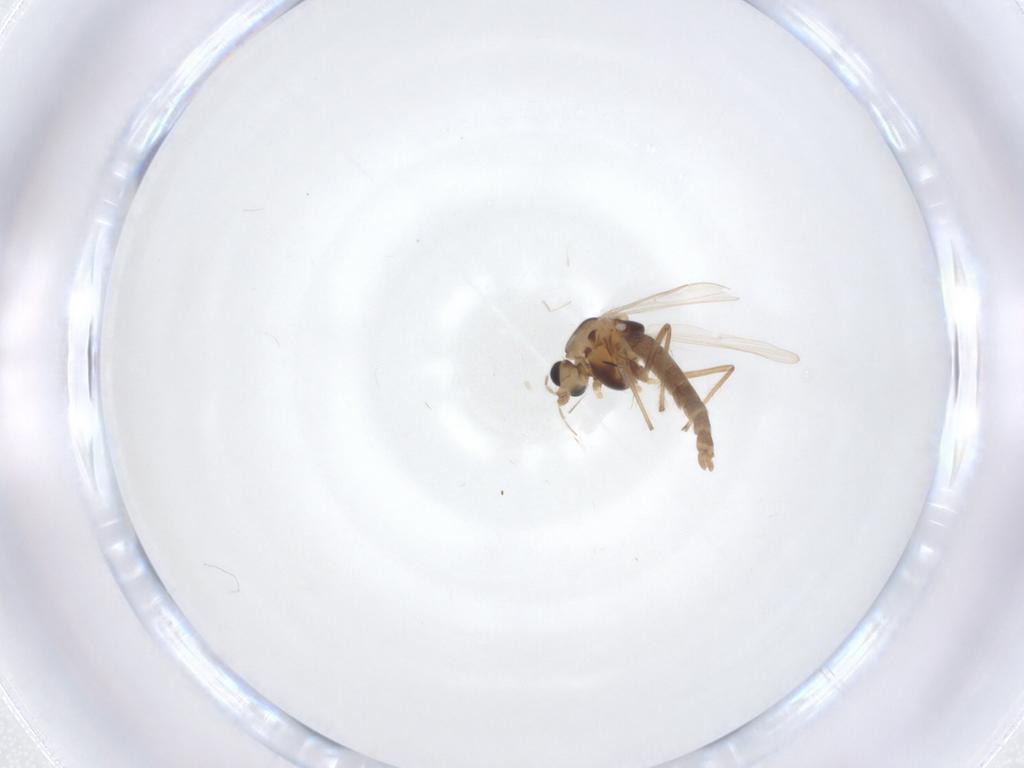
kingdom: Animalia
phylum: Arthropoda
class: Insecta
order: Diptera
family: Chironomidae
